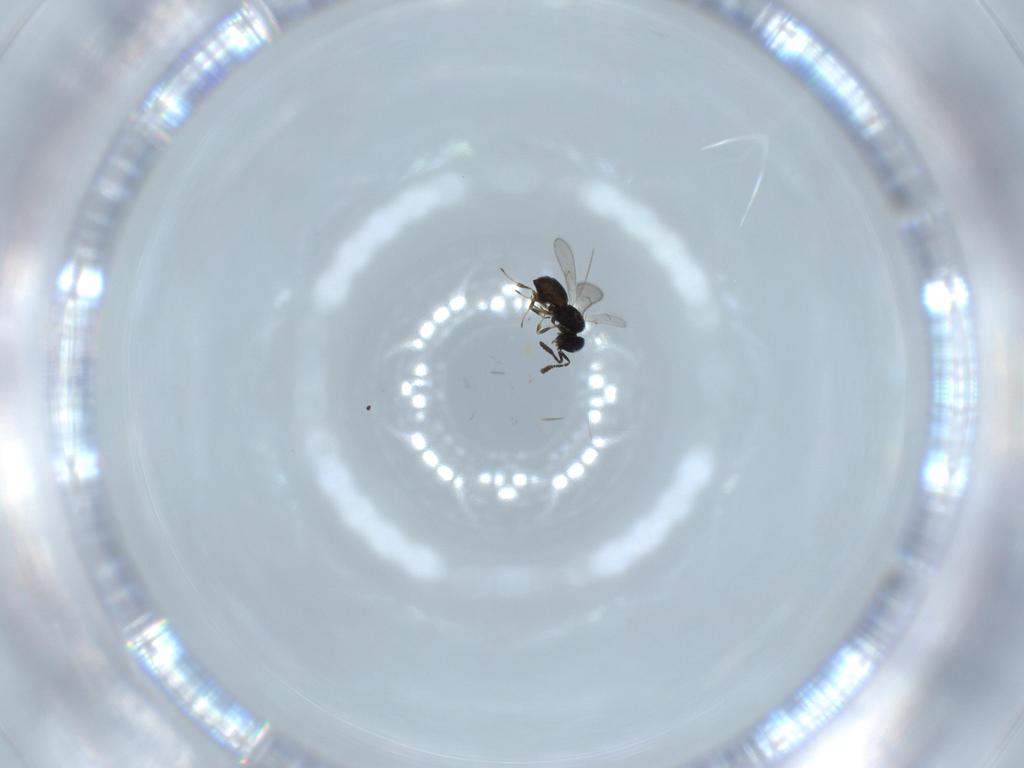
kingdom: Animalia
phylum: Arthropoda
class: Insecta
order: Hymenoptera
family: Scelionidae
